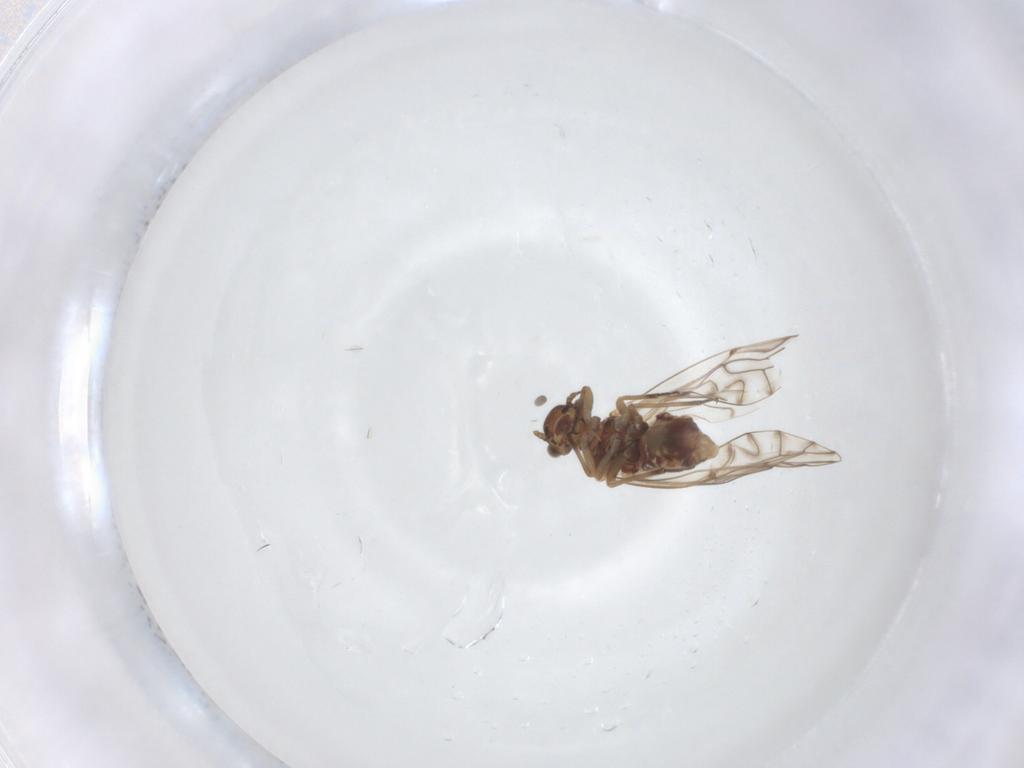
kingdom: Animalia
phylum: Arthropoda
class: Insecta
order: Psocodea
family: Lachesillidae
